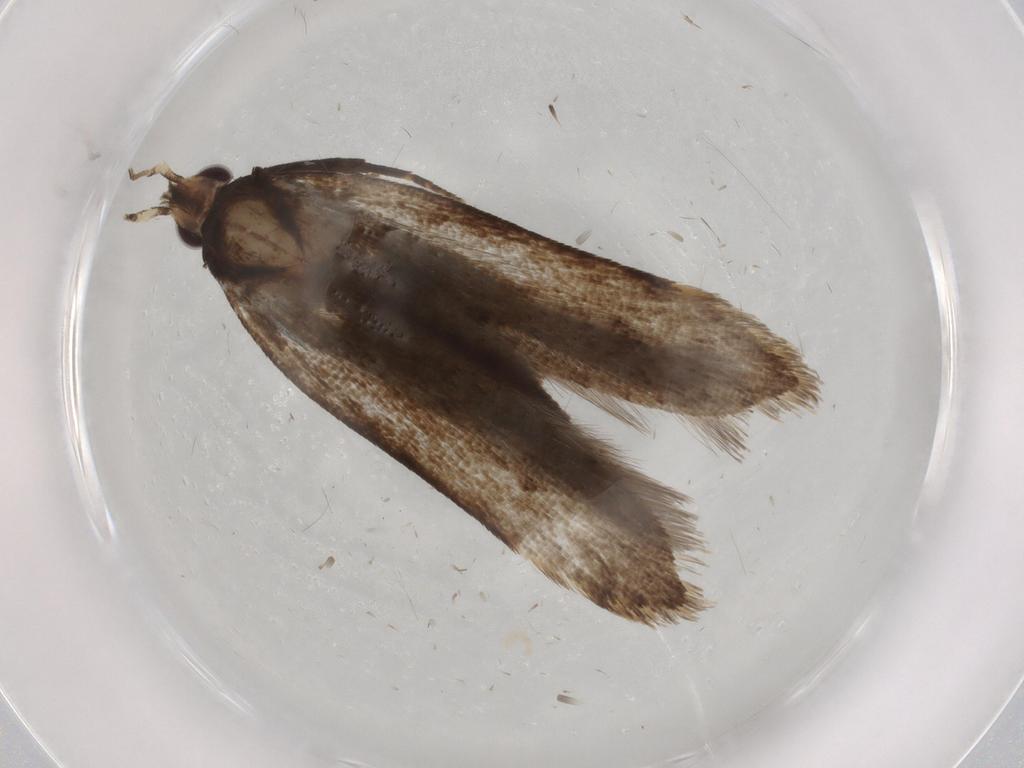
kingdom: Animalia
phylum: Arthropoda
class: Insecta
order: Lepidoptera
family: Gelechiidae
